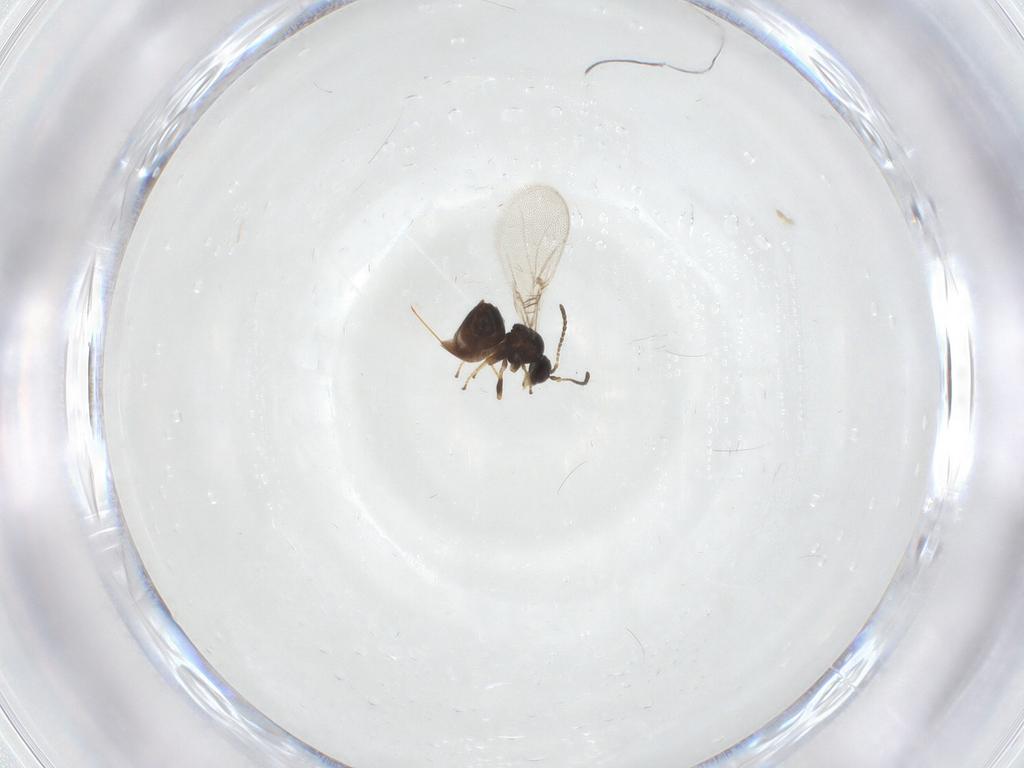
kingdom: Animalia
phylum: Arthropoda
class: Insecta
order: Hymenoptera
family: Cynipidae
